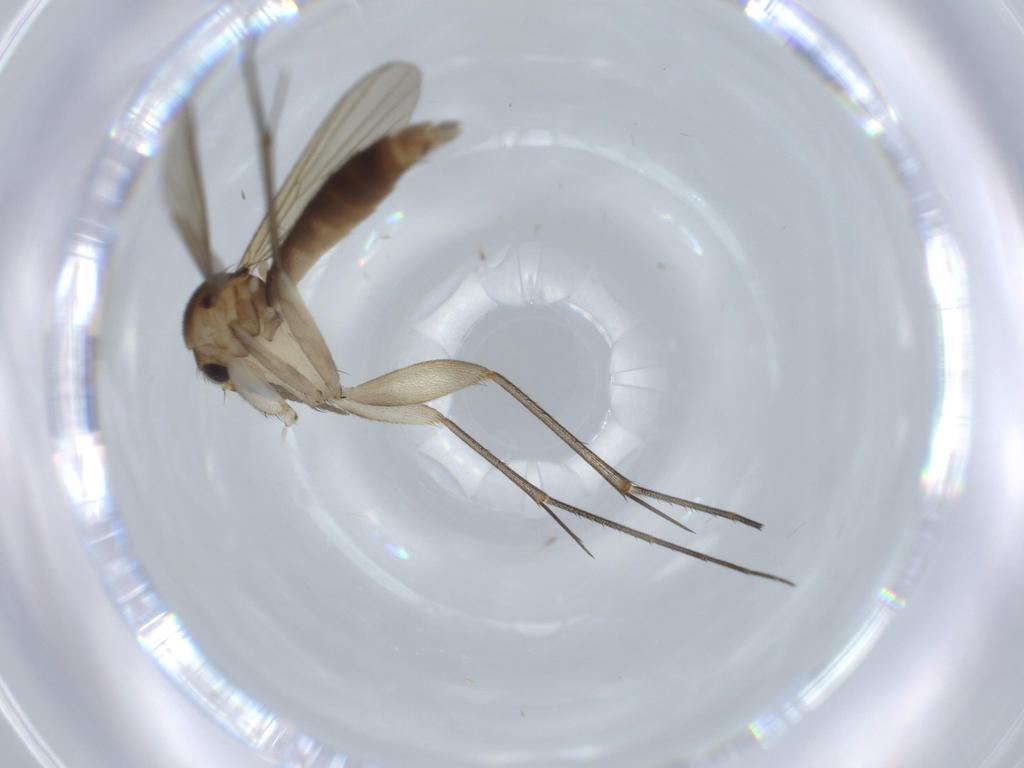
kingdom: Animalia
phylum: Arthropoda
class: Insecta
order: Diptera
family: Mycetophilidae
